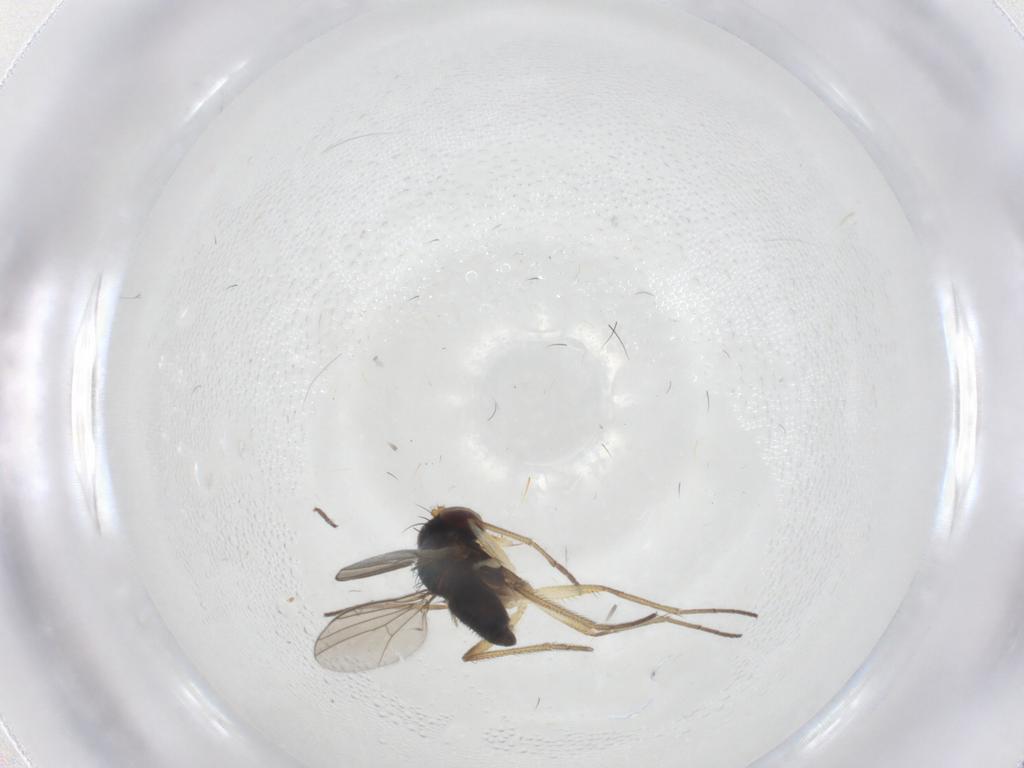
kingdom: Animalia
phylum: Arthropoda
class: Insecta
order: Diptera
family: Dolichopodidae
